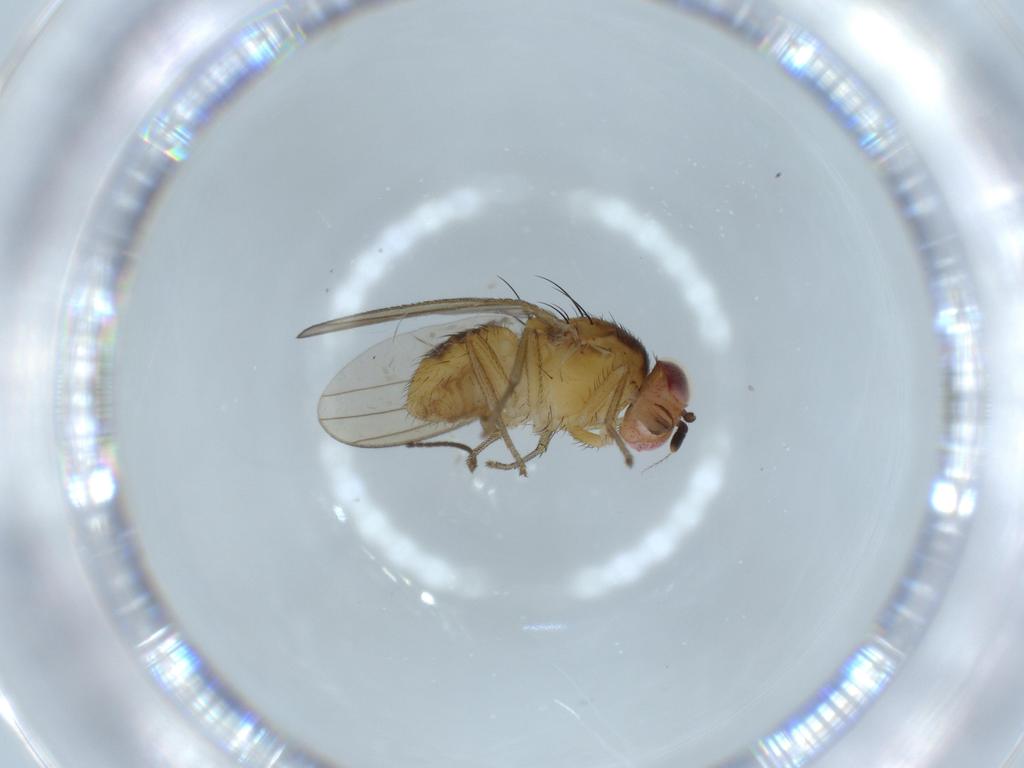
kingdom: Animalia
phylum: Arthropoda
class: Insecta
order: Diptera
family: Sciaridae
